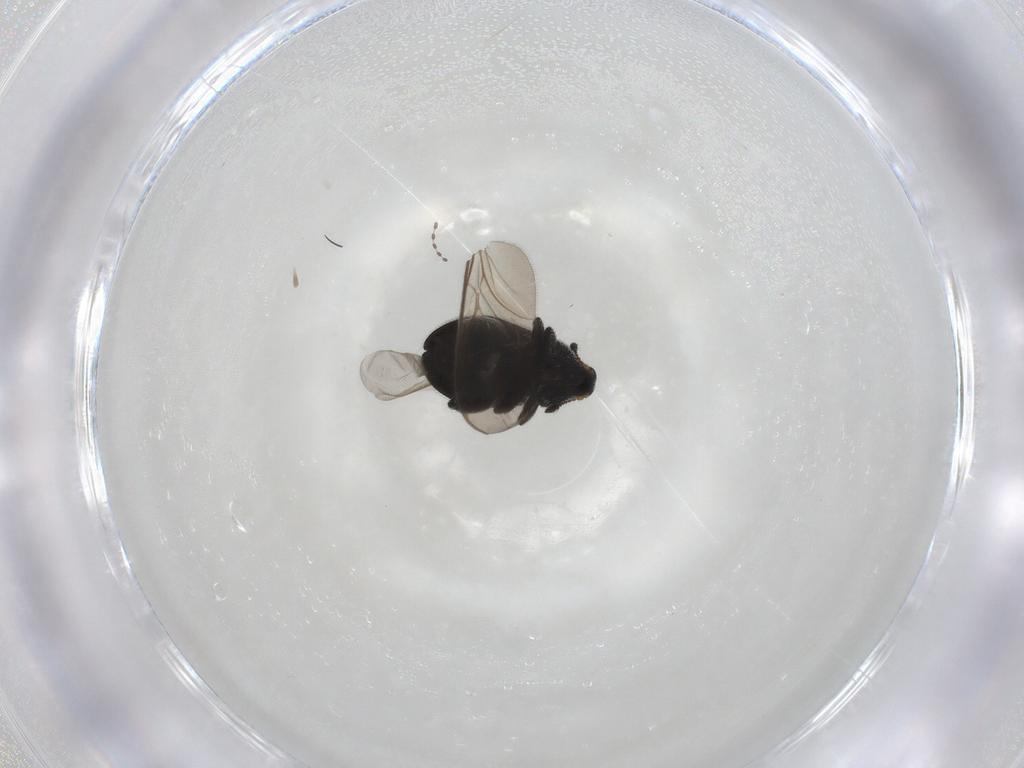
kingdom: Animalia
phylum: Arthropoda
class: Insecta
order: Coleoptera
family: Curculionidae
